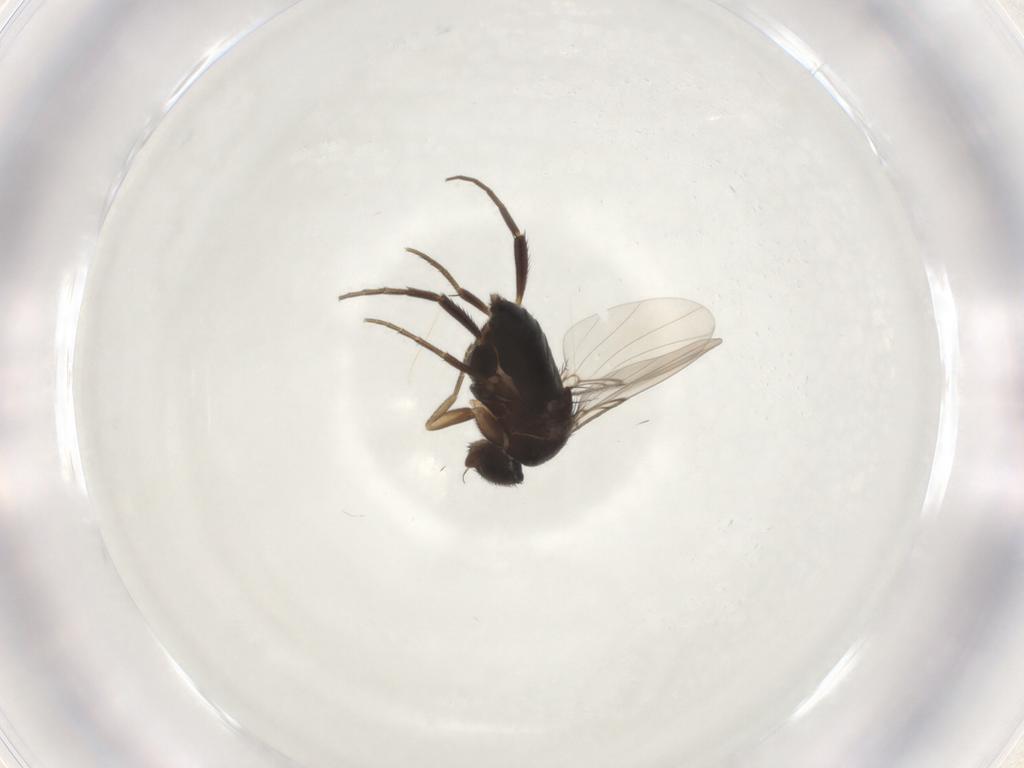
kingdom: Animalia
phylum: Arthropoda
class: Insecta
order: Diptera
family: Phoridae
